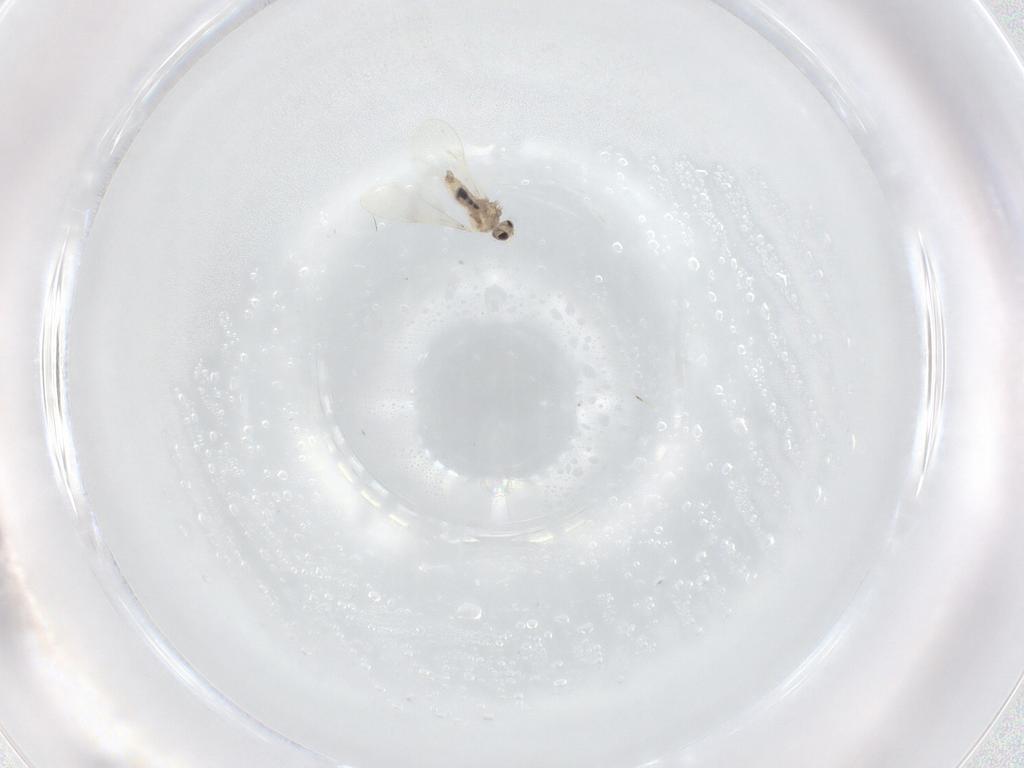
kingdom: Animalia
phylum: Arthropoda
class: Insecta
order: Diptera
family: Cecidomyiidae
